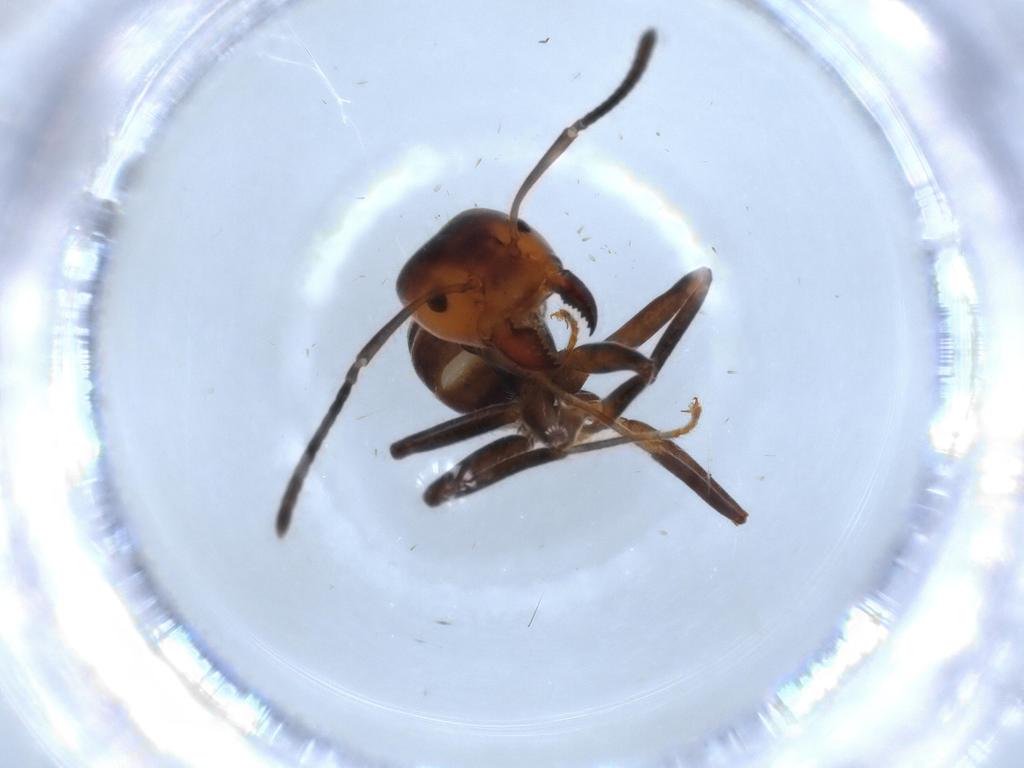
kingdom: Animalia
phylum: Arthropoda
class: Insecta
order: Hymenoptera
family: Formicidae
